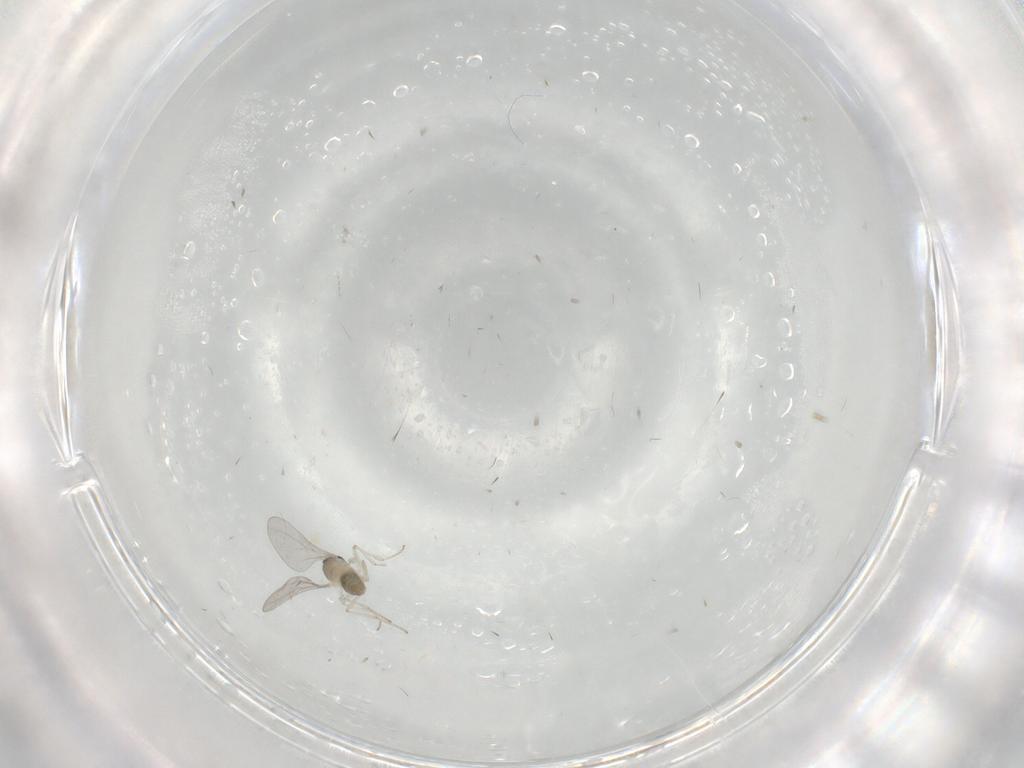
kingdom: Animalia
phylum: Arthropoda
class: Insecta
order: Diptera
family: Cecidomyiidae
